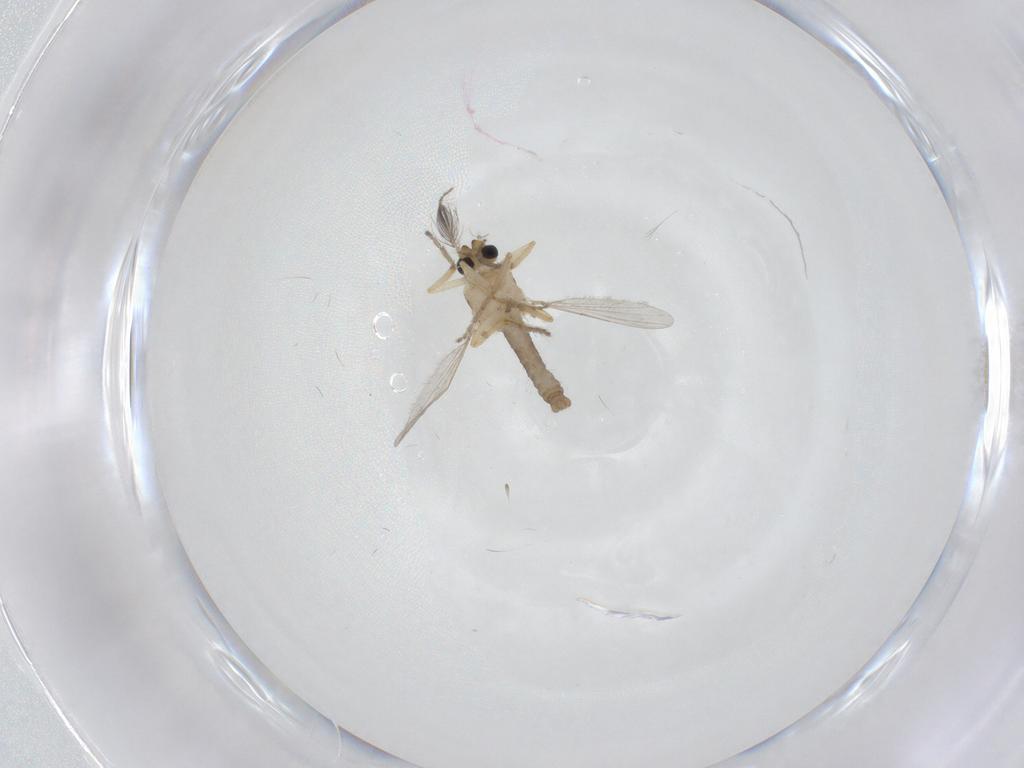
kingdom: Animalia
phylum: Arthropoda
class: Insecta
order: Diptera
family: Ceratopogonidae
